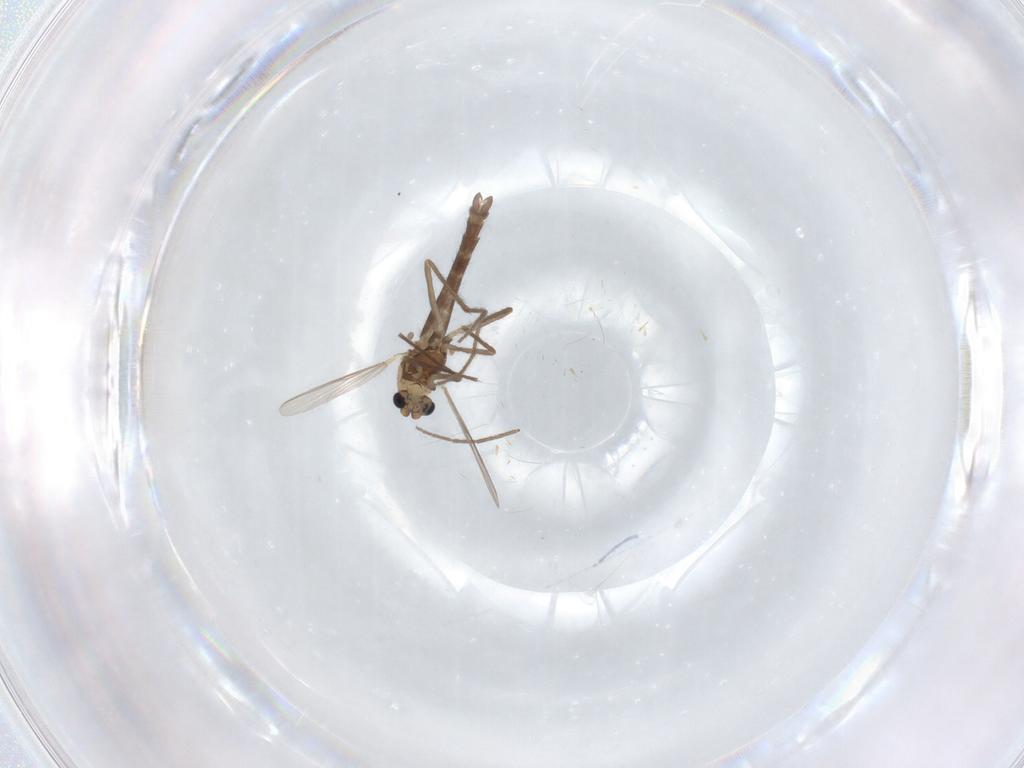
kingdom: Animalia
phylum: Arthropoda
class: Insecta
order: Diptera
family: Chironomidae
